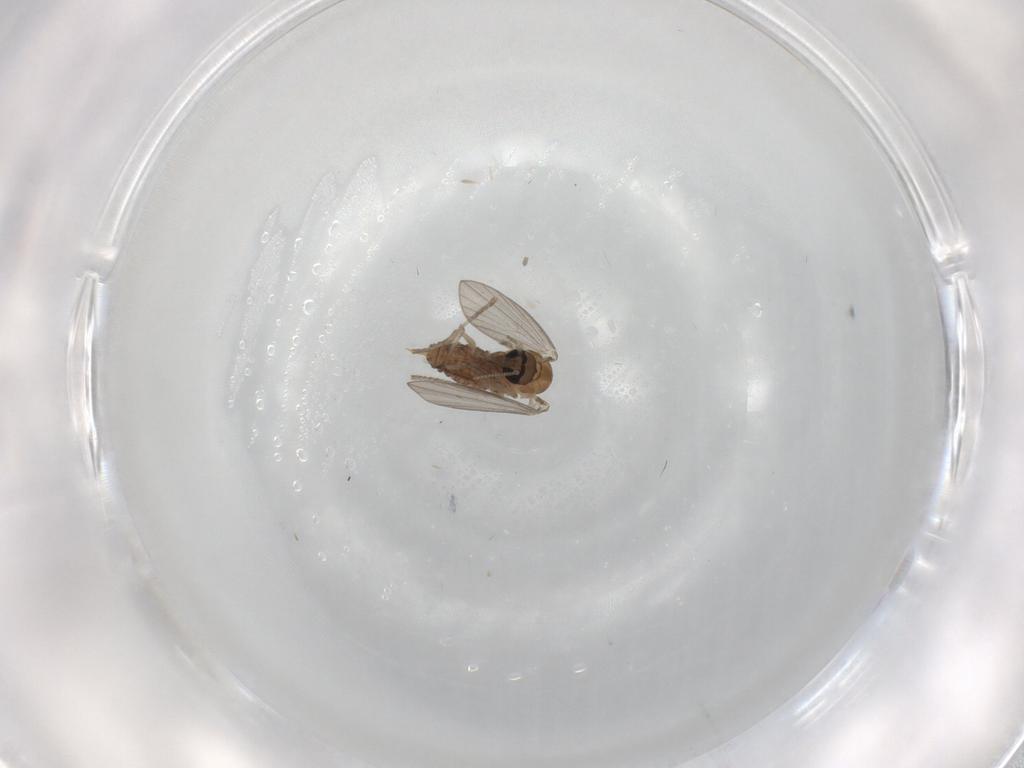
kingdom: Animalia
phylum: Arthropoda
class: Insecta
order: Diptera
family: Psychodidae
